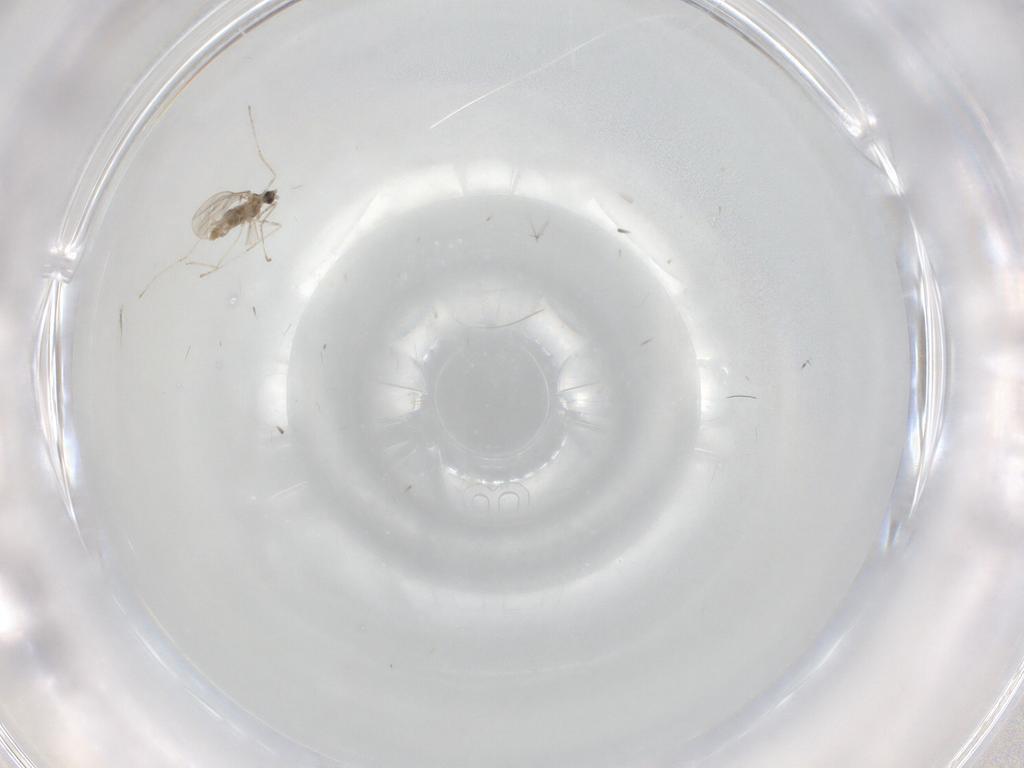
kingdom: Animalia
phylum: Arthropoda
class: Insecta
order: Diptera
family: Cecidomyiidae
